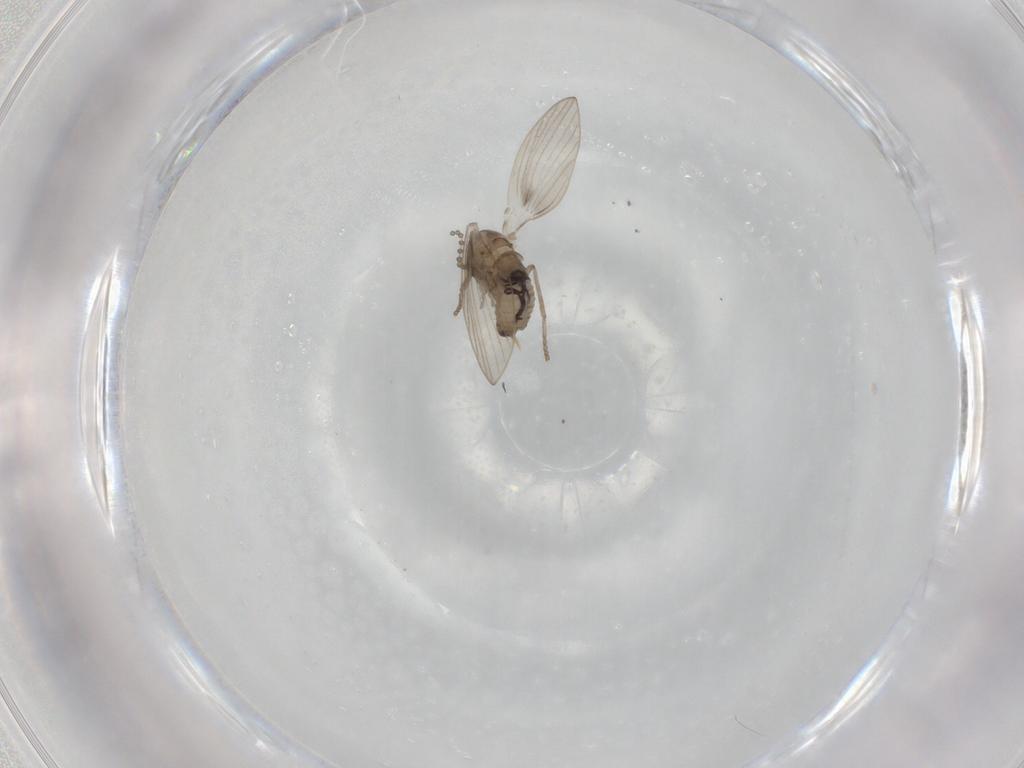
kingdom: Animalia
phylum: Arthropoda
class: Insecta
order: Diptera
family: Cecidomyiidae
